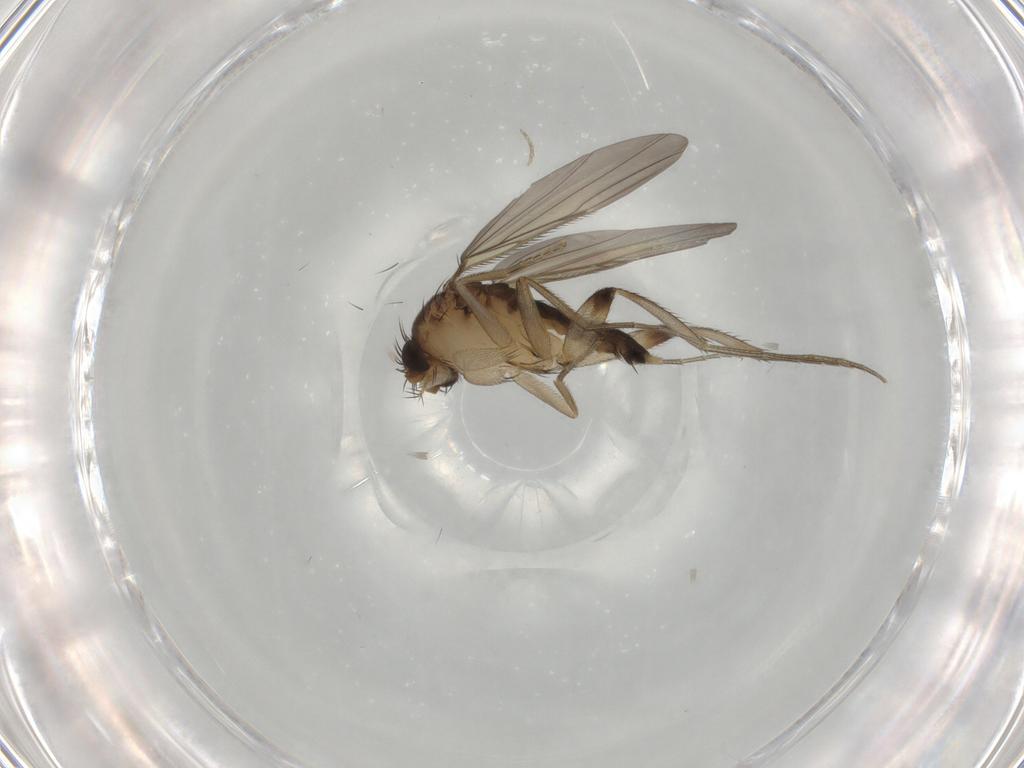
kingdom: Animalia
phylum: Arthropoda
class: Insecta
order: Diptera
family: Phoridae
